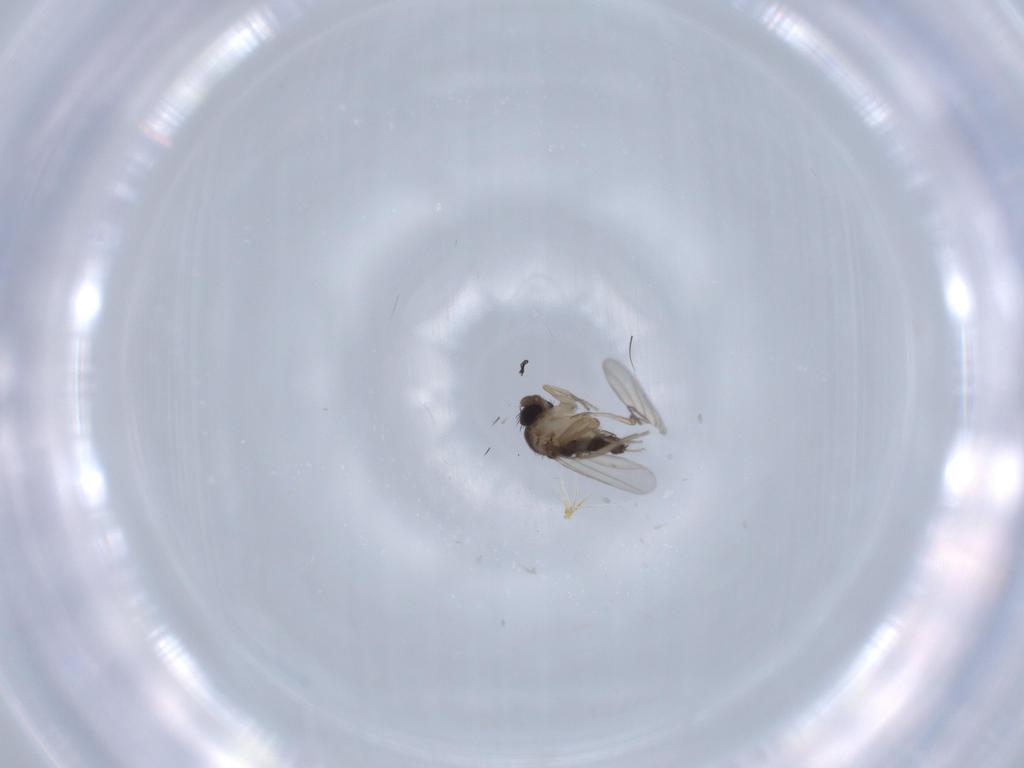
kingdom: Animalia
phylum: Arthropoda
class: Insecta
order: Diptera
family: Phoridae
